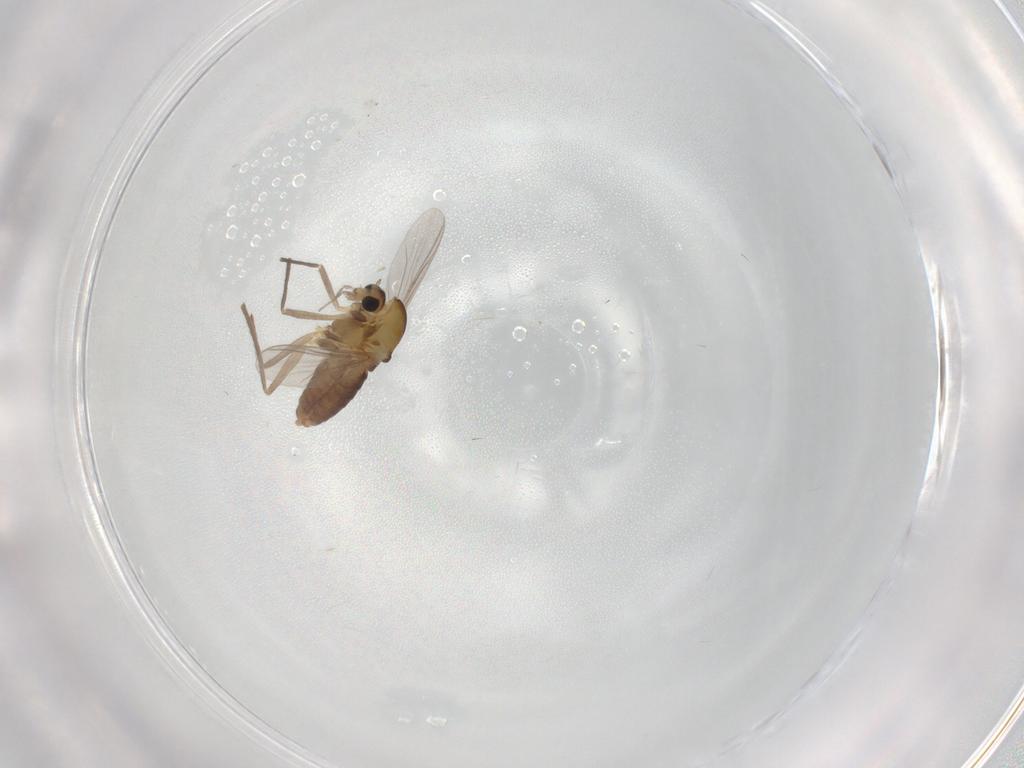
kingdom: Animalia
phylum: Arthropoda
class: Insecta
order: Diptera
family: Chironomidae
